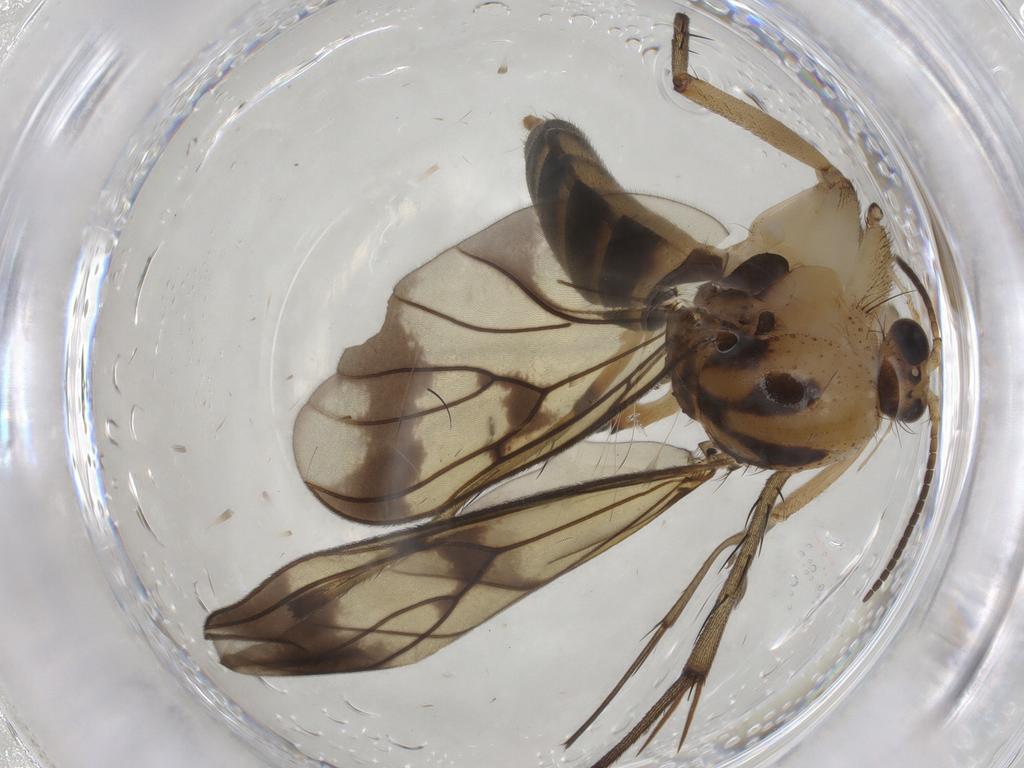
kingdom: Animalia
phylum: Arthropoda
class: Insecta
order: Diptera
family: Mycetophilidae
